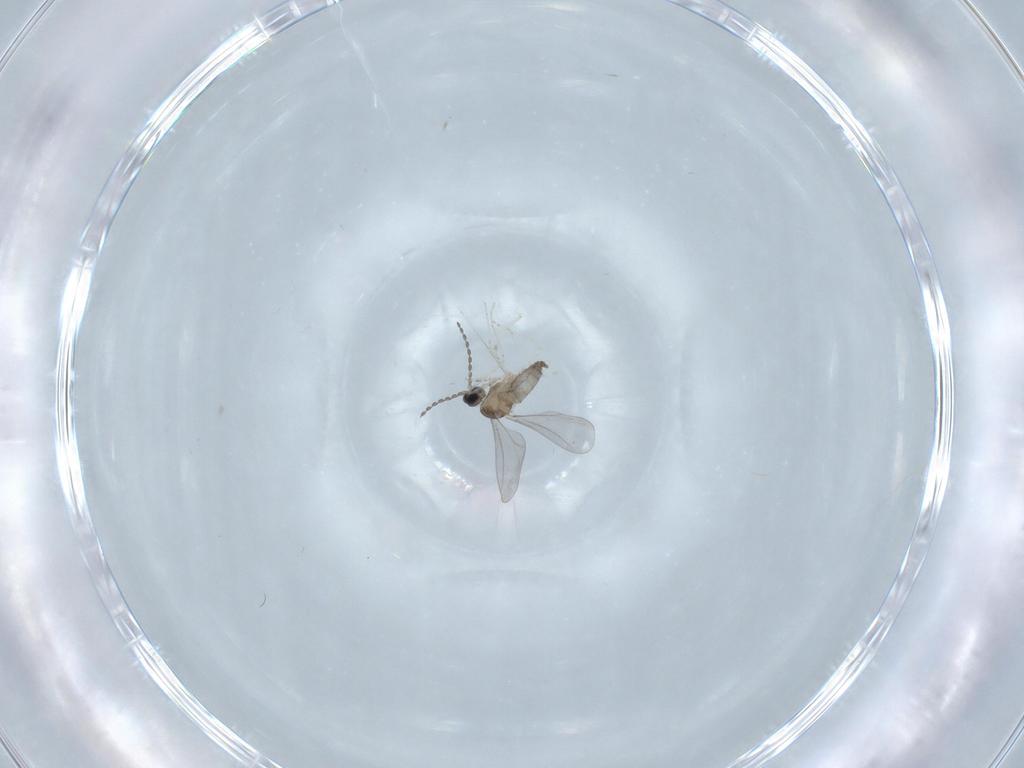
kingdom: Animalia
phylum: Arthropoda
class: Insecta
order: Diptera
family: Cecidomyiidae
